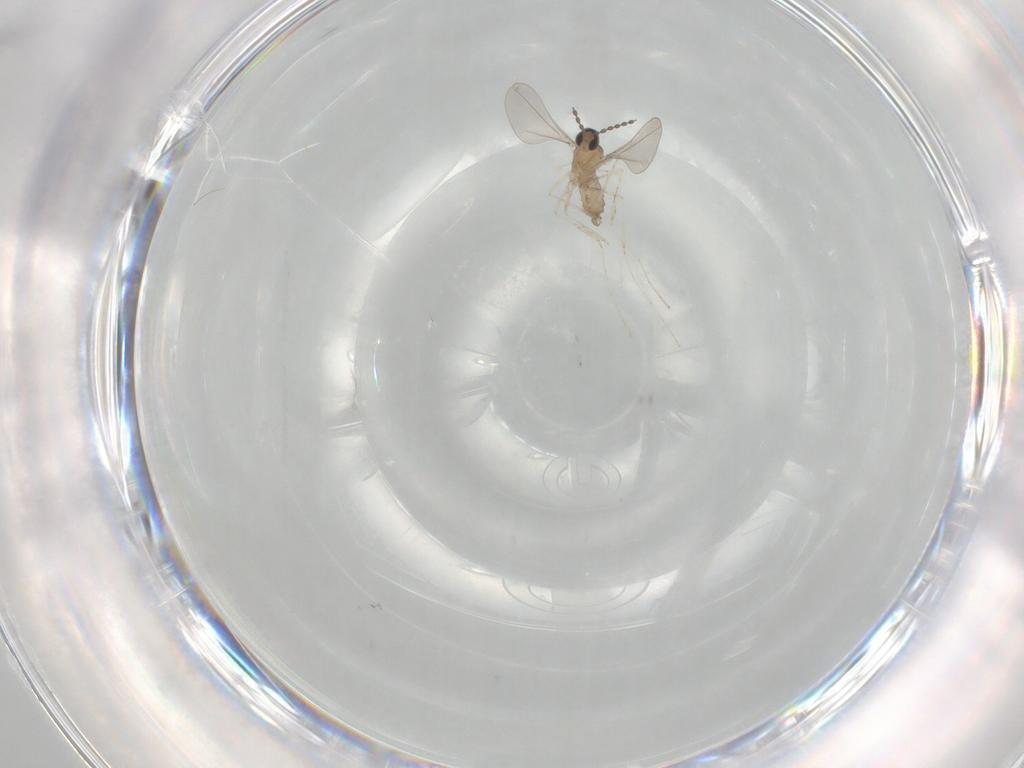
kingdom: Animalia
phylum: Arthropoda
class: Insecta
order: Diptera
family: Cecidomyiidae
